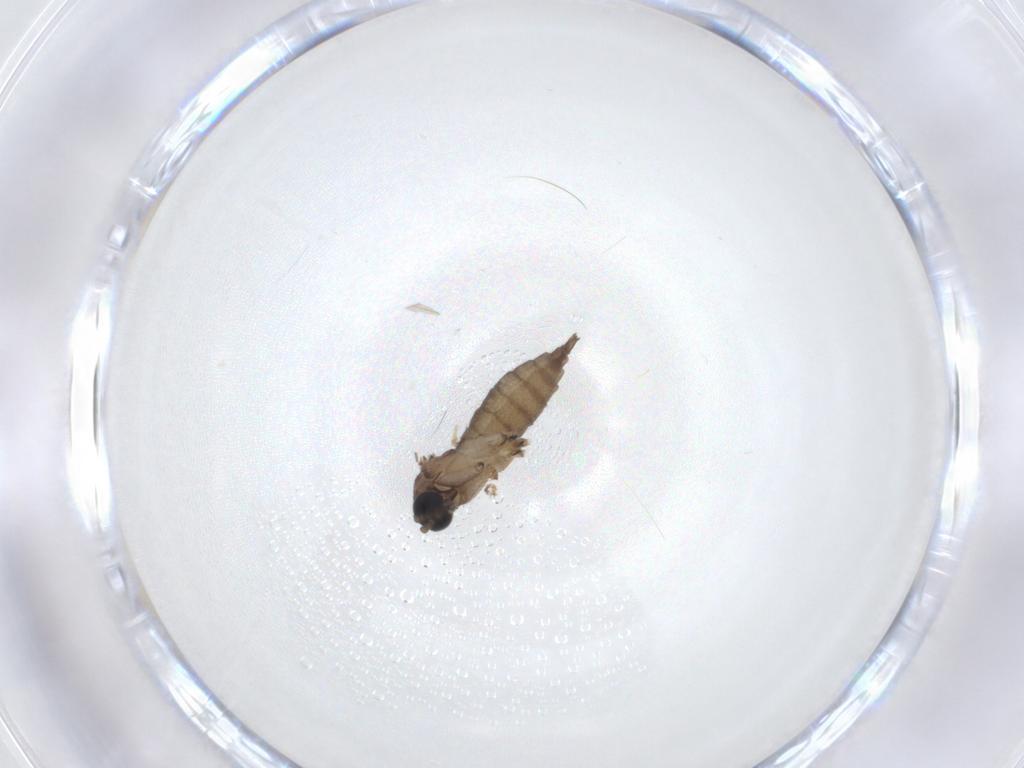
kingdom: Animalia
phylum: Arthropoda
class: Insecta
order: Diptera
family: Sciaridae
